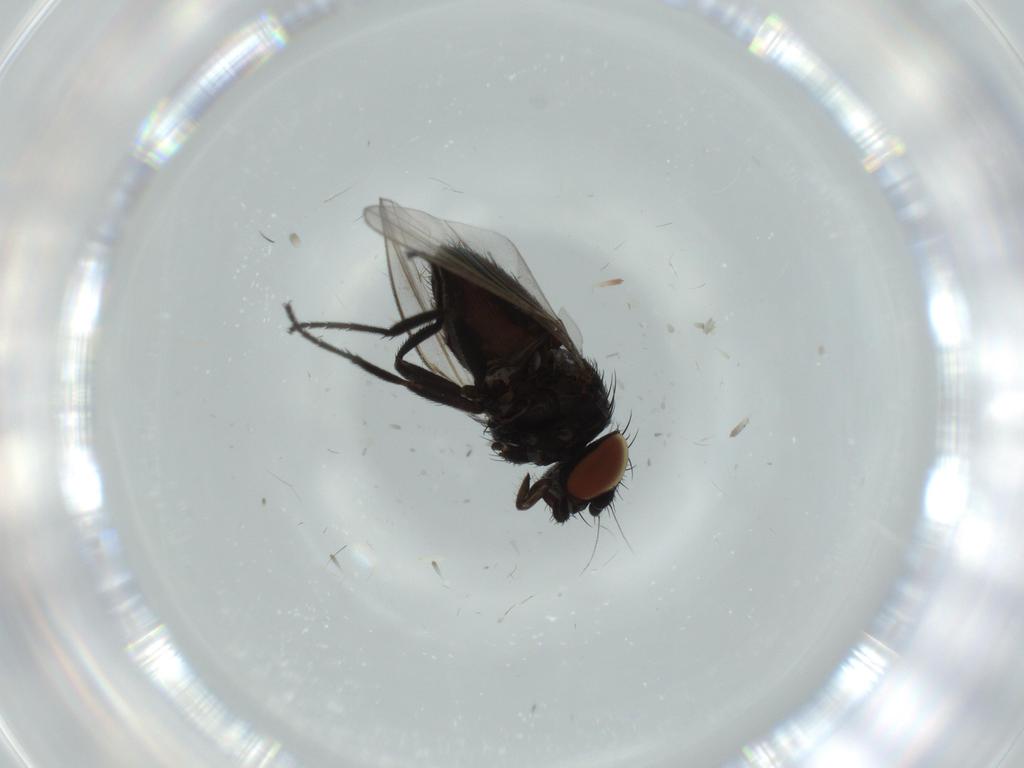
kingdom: Animalia
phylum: Arthropoda
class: Insecta
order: Diptera
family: Milichiidae
